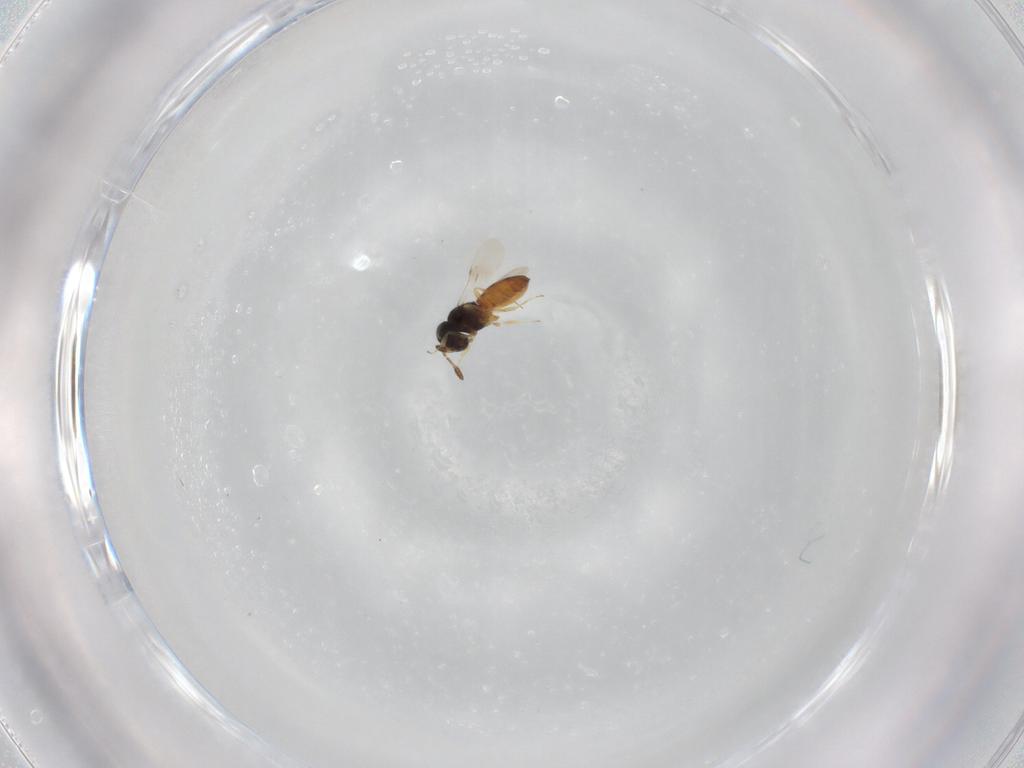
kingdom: Animalia
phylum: Arthropoda
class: Insecta
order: Hymenoptera
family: Scelionidae
